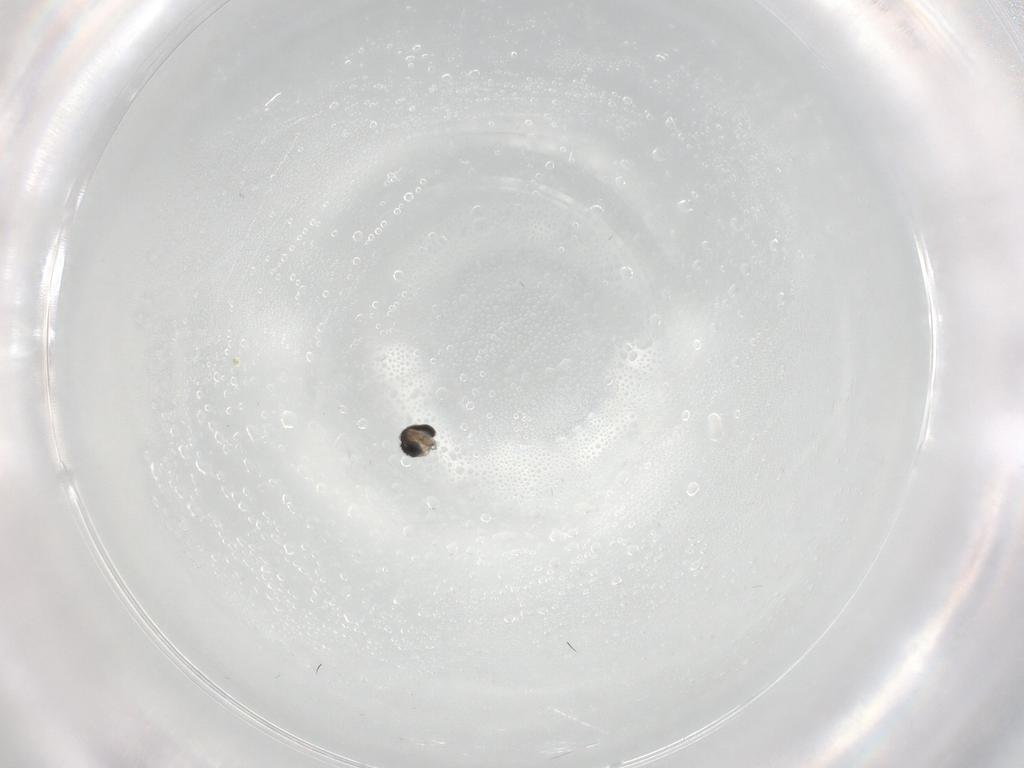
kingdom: Animalia
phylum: Arthropoda
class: Insecta
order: Diptera
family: Cecidomyiidae
